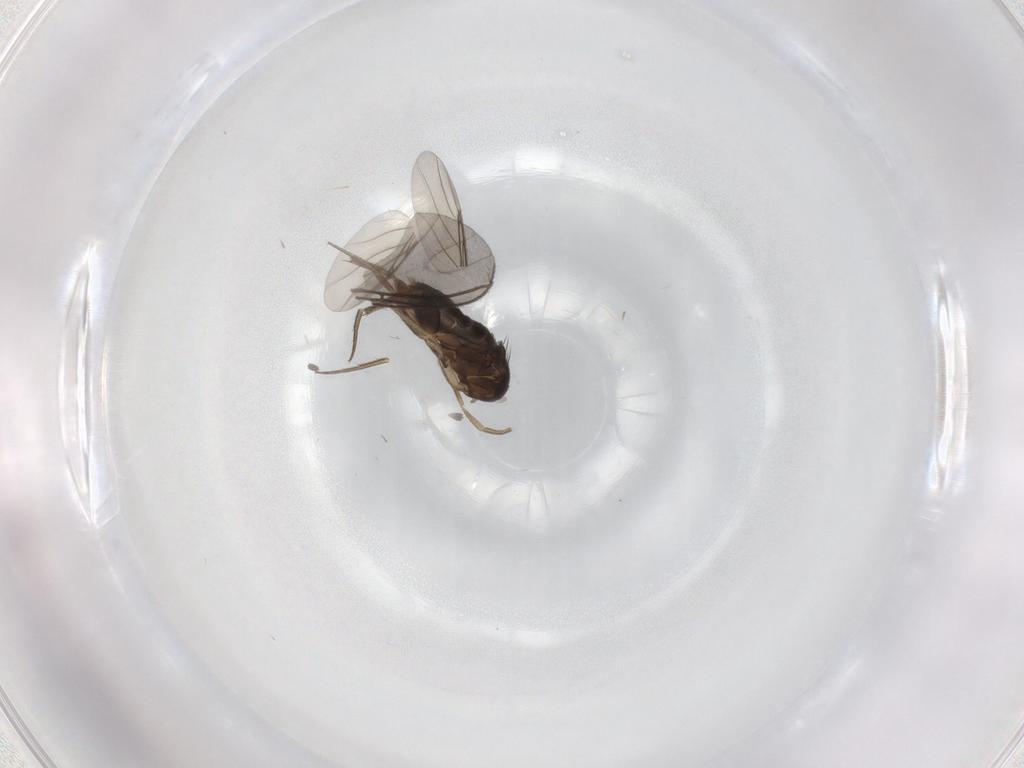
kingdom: Animalia
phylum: Arthropoda
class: Insecta
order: Diptera
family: Phoridae
